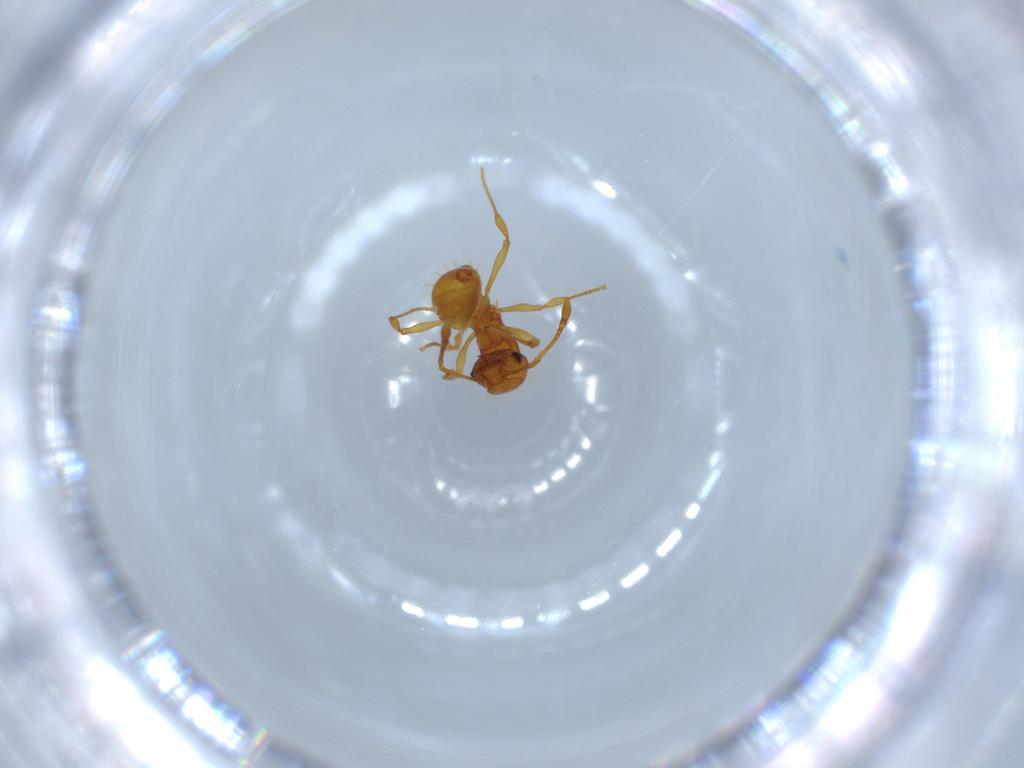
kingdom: Animalia
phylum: Arthropoda
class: Insecta
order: Hymenoptera
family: Formicidae
